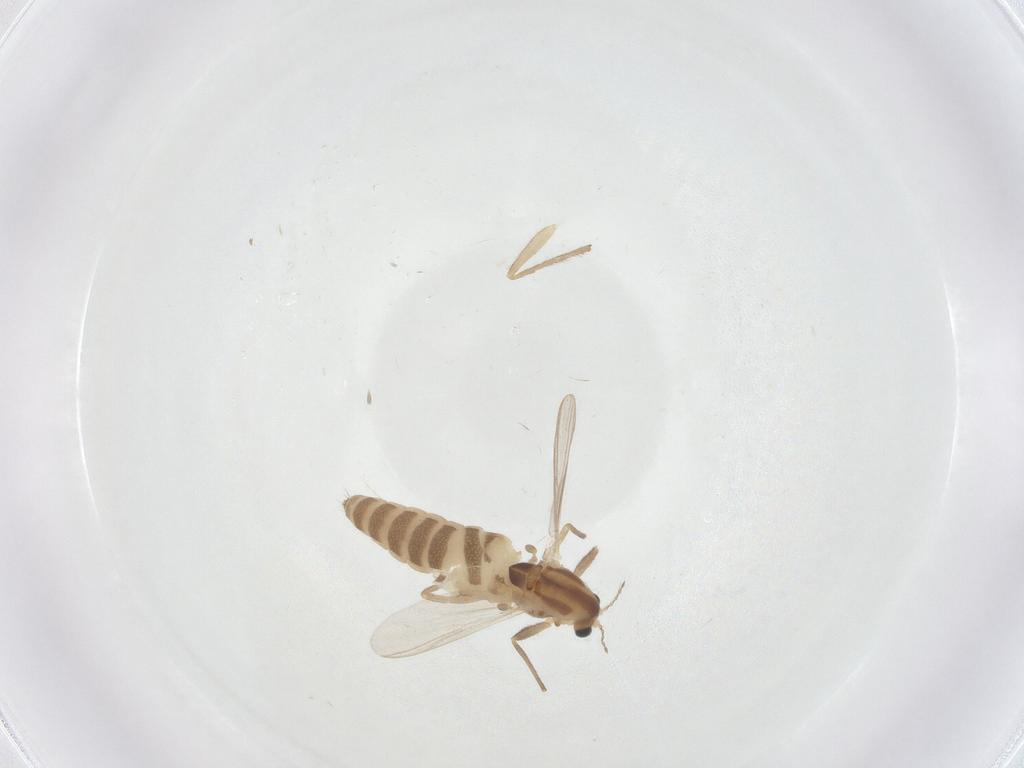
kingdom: Animalia
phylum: Arthropoda
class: Insecta
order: Diptera
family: Chironomidae
